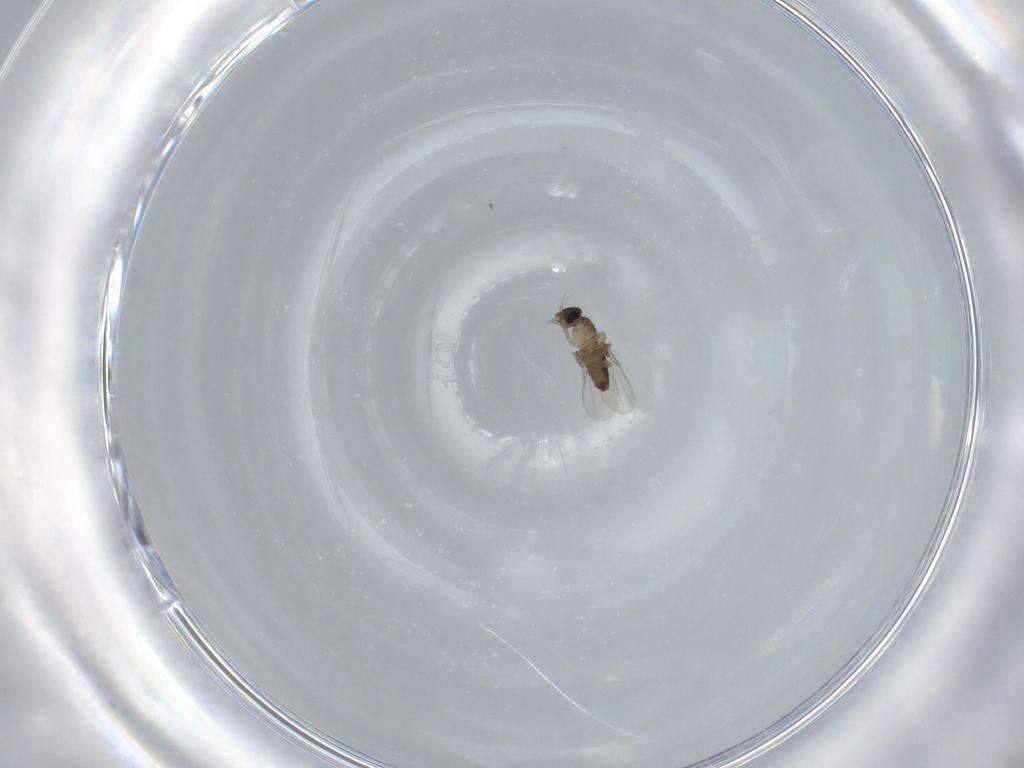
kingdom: Animalia
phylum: Arthropoda
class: Insecta
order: Diptera
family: Phoridae
